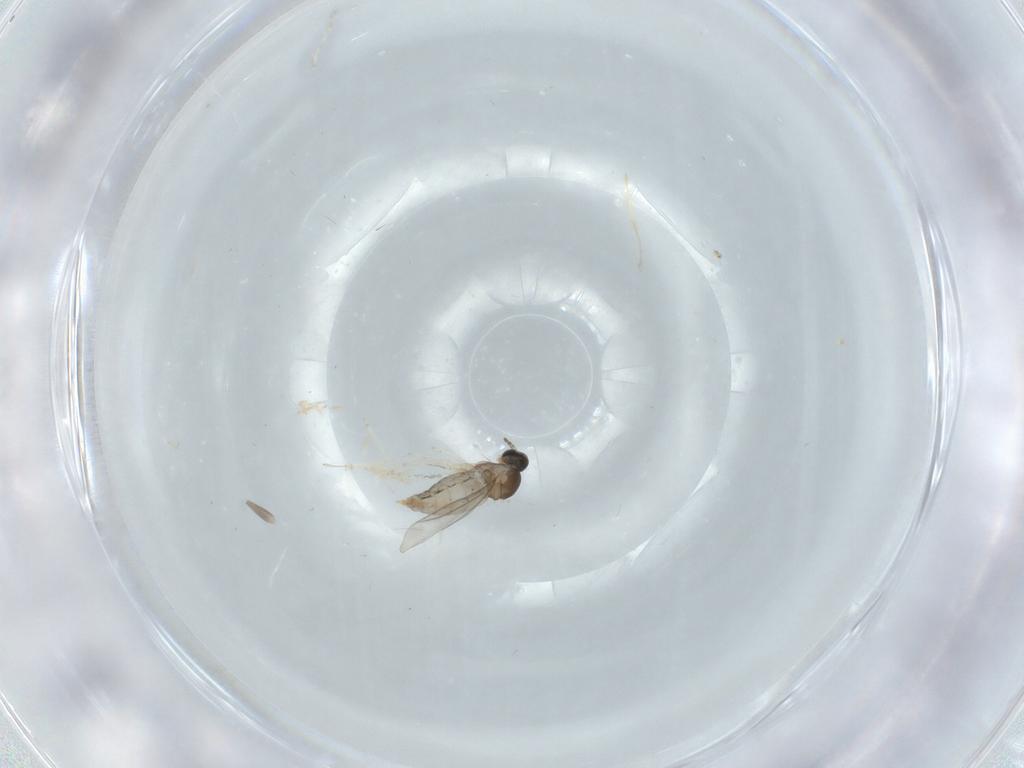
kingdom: Animalia
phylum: Arthropoda
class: Insecta
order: Diptera
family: Cecidomyiidae
